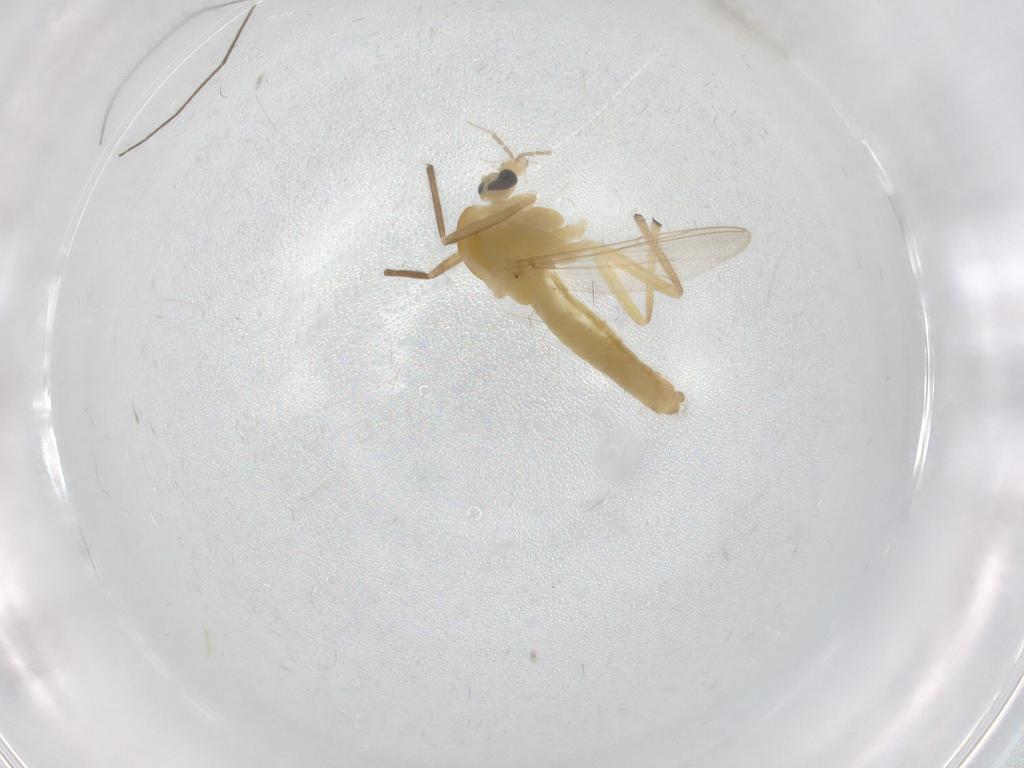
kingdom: Animalia
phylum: Arthropoda
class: Insecta
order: Diptera
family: Chironomidae
